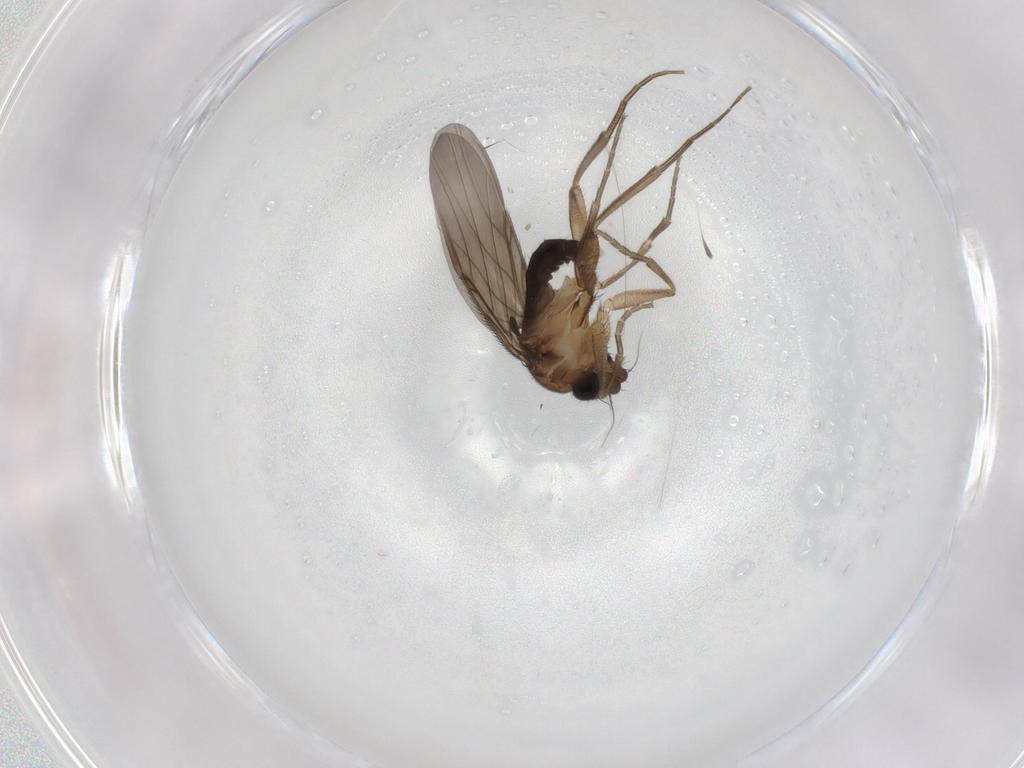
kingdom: Animalia
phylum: Arthropoda
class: Insecta
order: Diptera
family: Phoridae
